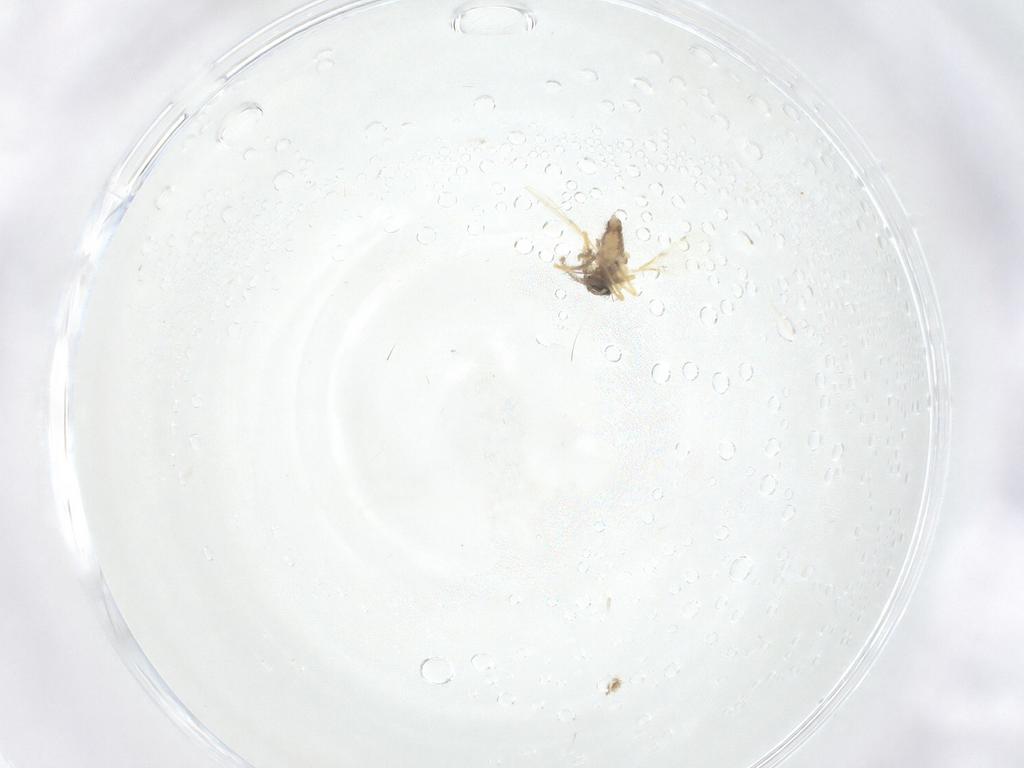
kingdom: Animalia
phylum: Arthropoda
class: Insecta
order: Diptera
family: Ceratopogonidae
